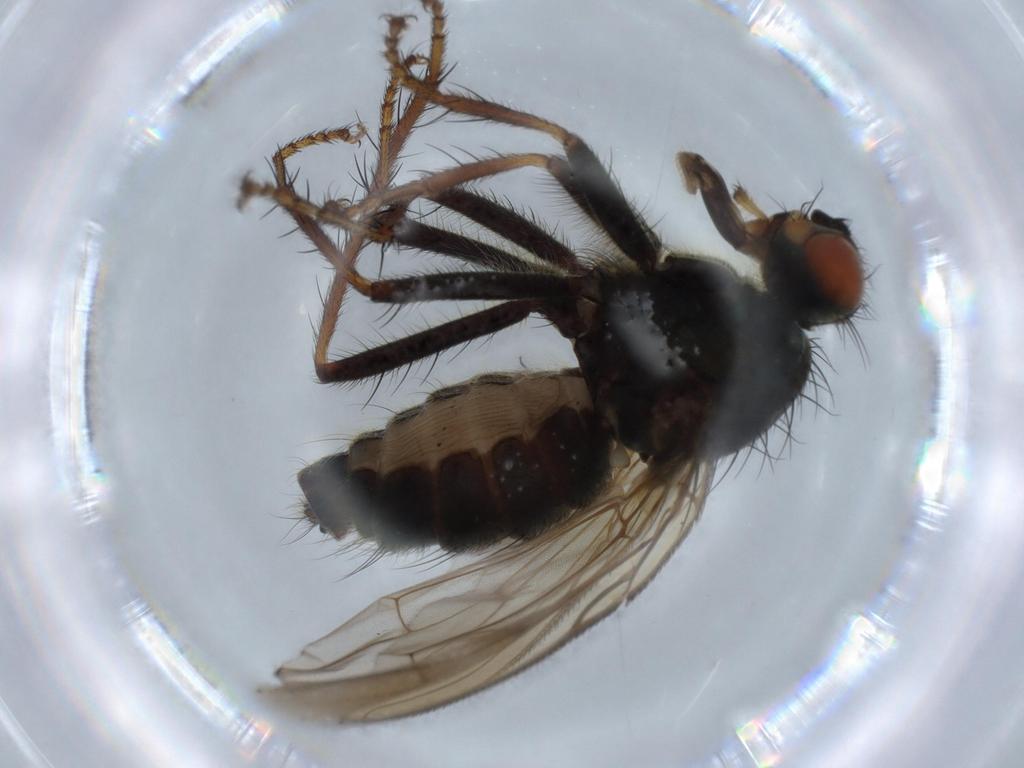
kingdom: Animalia
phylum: Arthropoda
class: Insecta
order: Diptera
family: Scathophagidae
